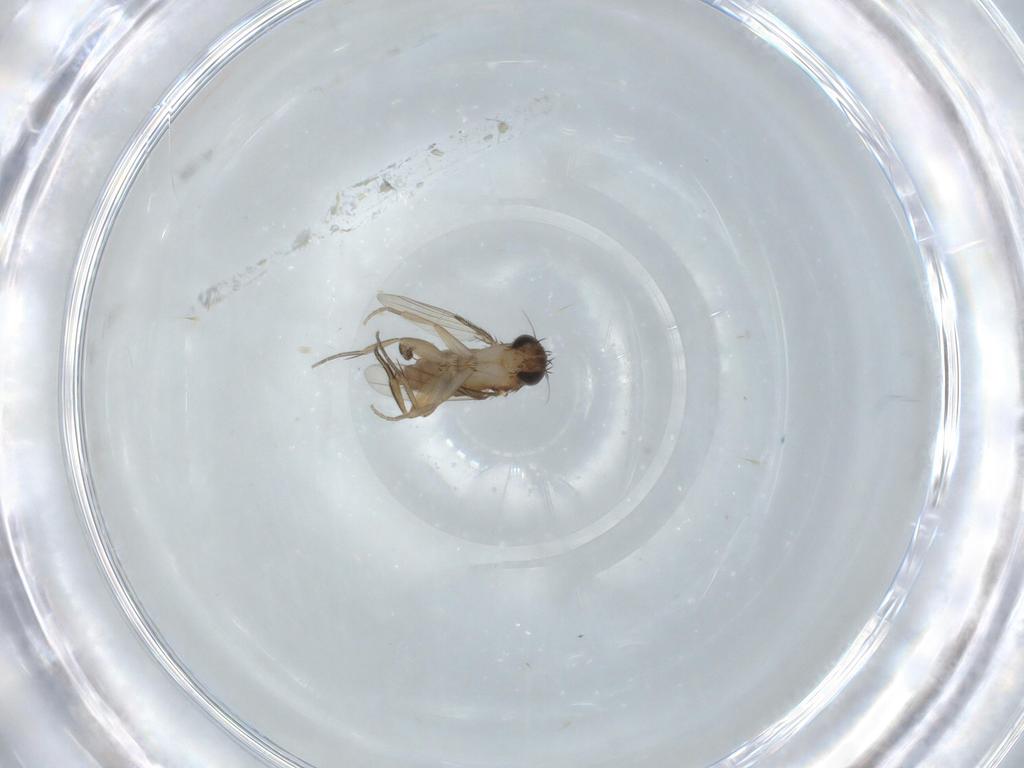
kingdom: Animalia
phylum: Arthropoda
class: Insecta
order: Diptera
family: Phoridae
